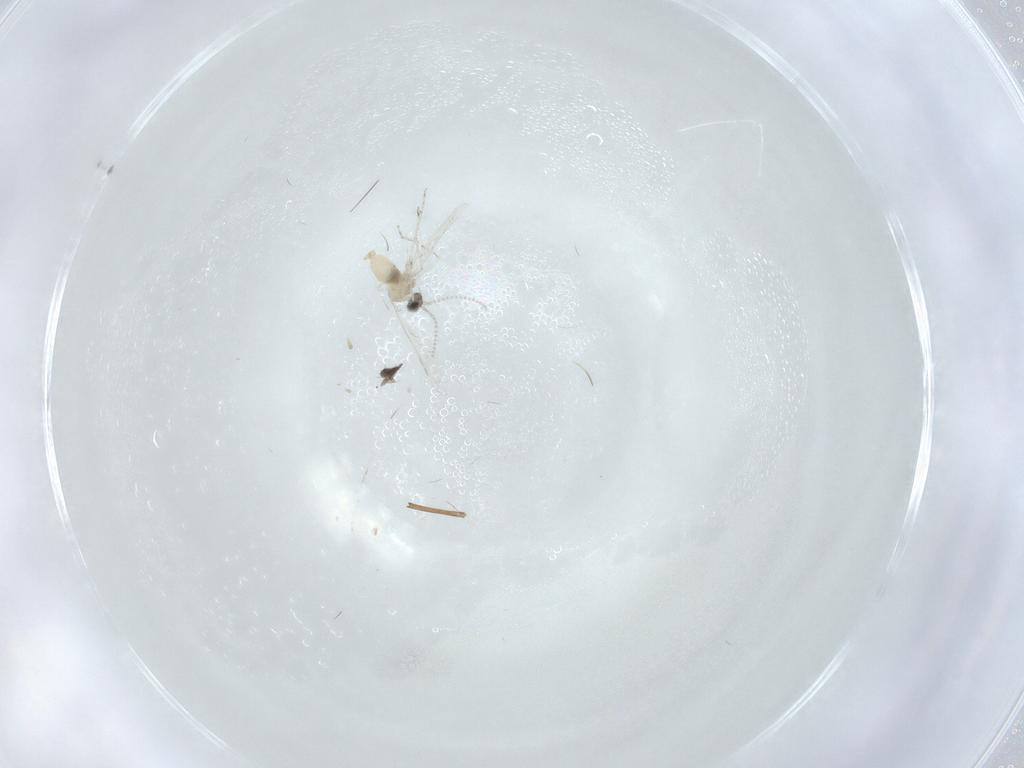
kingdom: Animalia
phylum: Arthropoda
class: Insecta
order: Diptera
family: Cecidomyiidae
